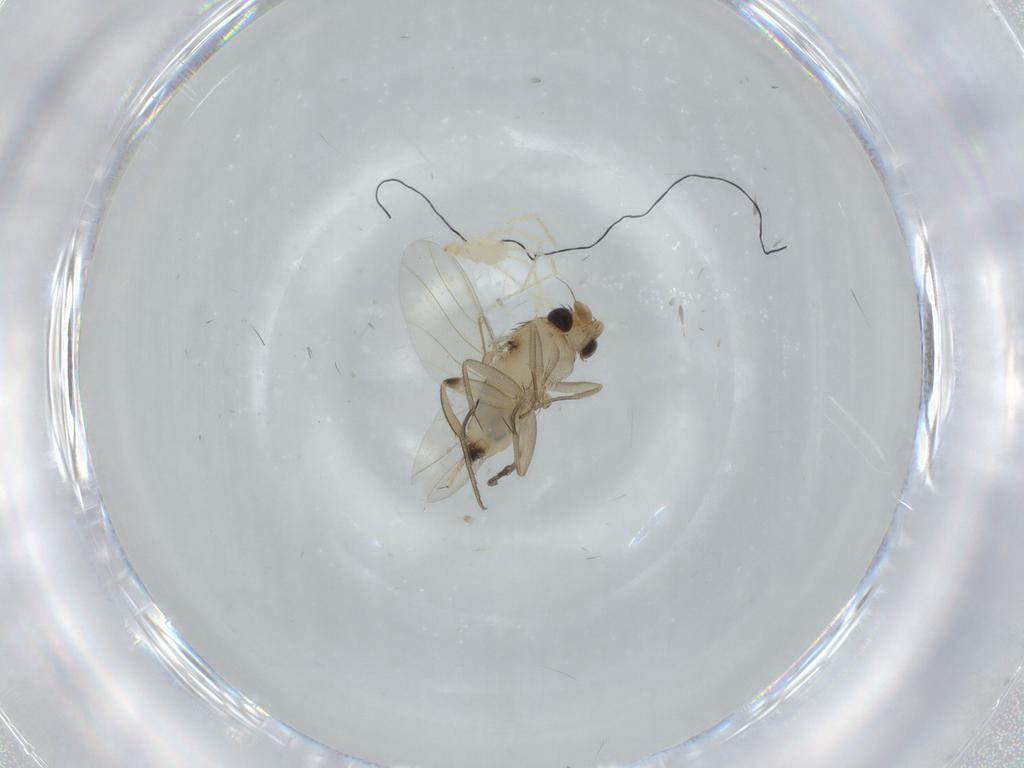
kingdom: Animalia
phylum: Arthropoda
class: Insecta
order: Diptera
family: Phoridae
